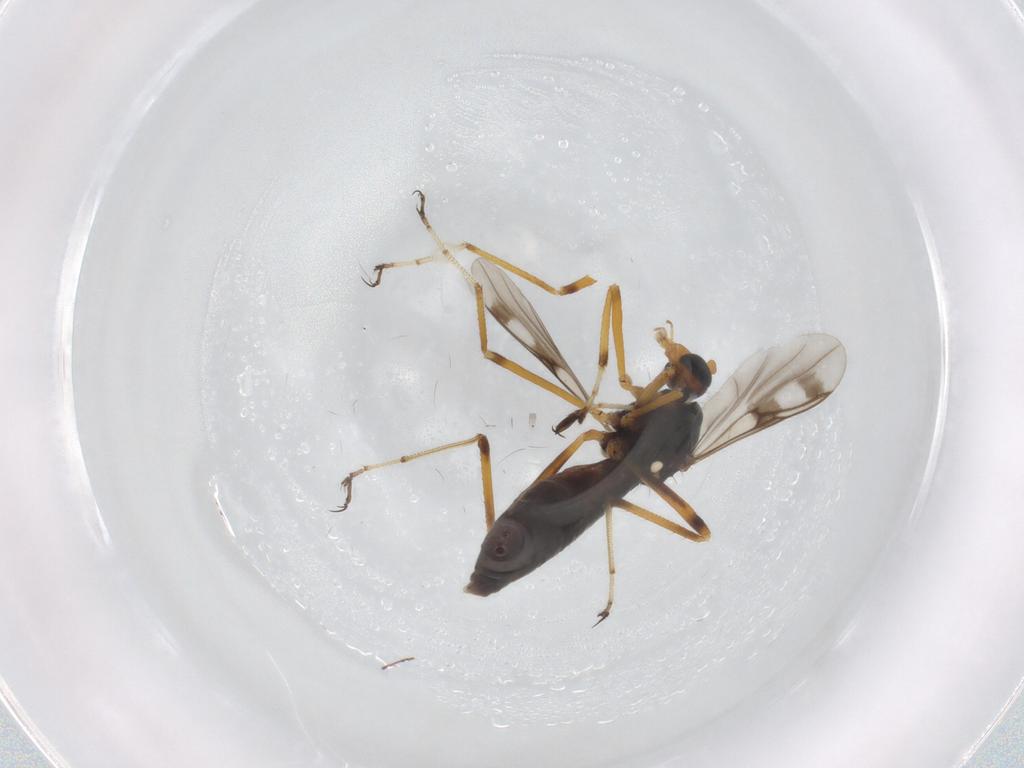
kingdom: Animalia
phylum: Arthropoda
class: Insecta
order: Diptera
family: Ceratopogonidae
